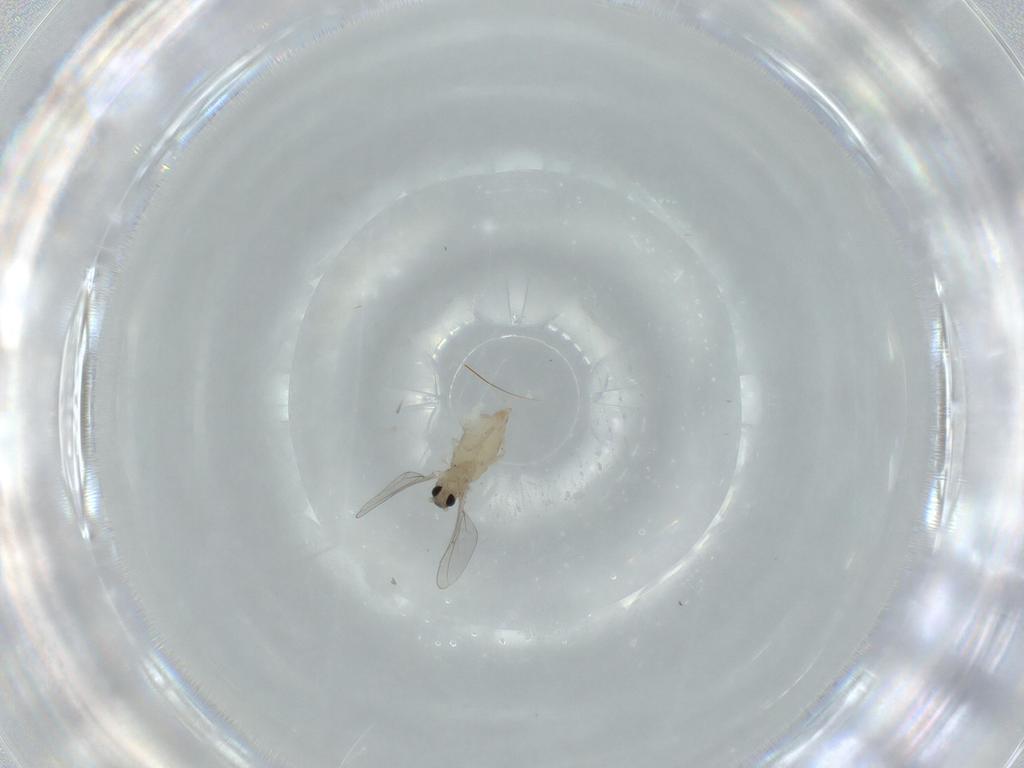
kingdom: Animalia
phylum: Arthropoda
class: Insecta
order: Diptera
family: Cecidomyiidae
